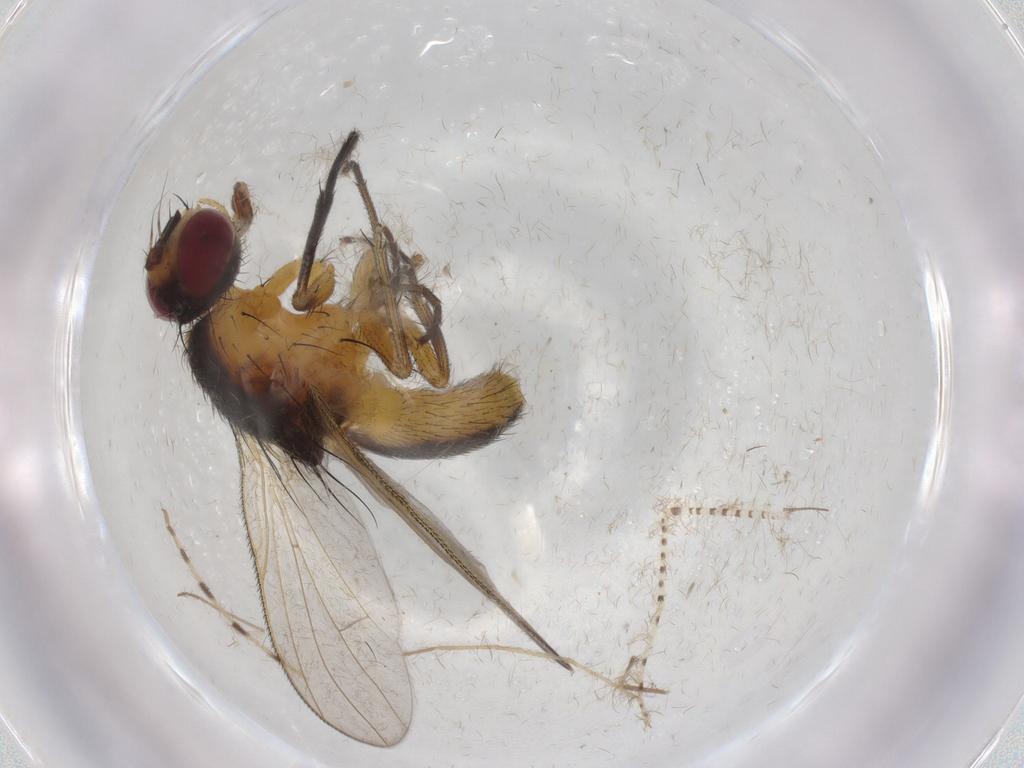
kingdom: Animalia
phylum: Arthropoda
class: Insecta
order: Diptera
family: Chaoboridae
